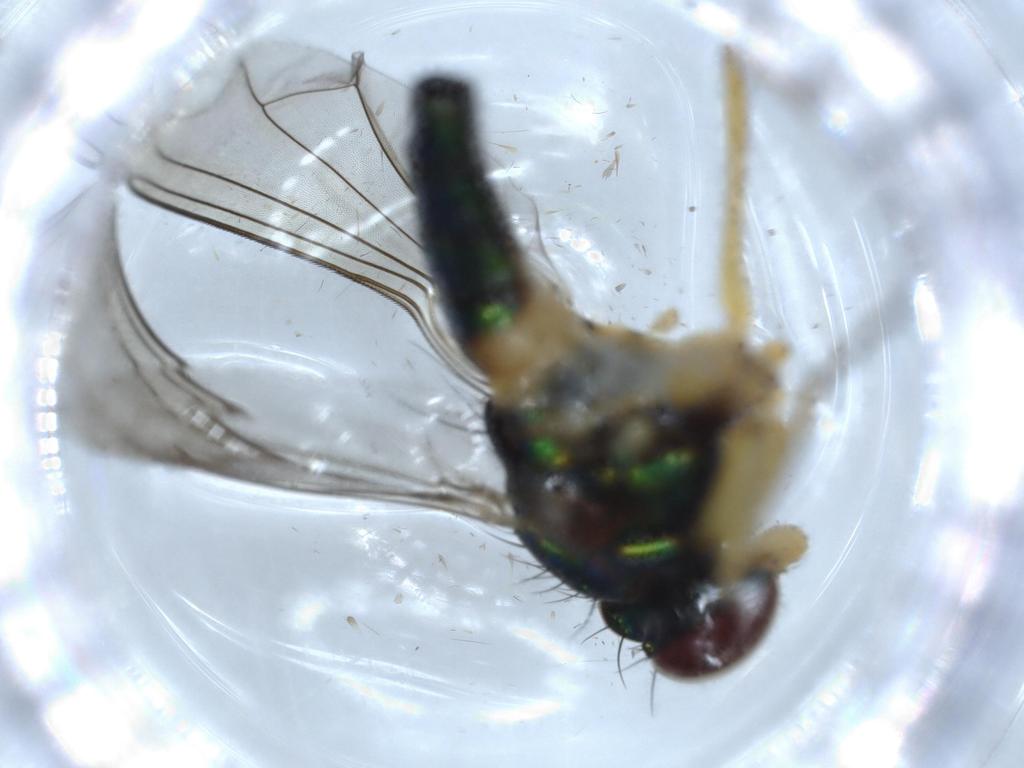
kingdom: Animalia
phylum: Arthropoda
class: Insecta
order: Diptera
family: Dolichopodidae
